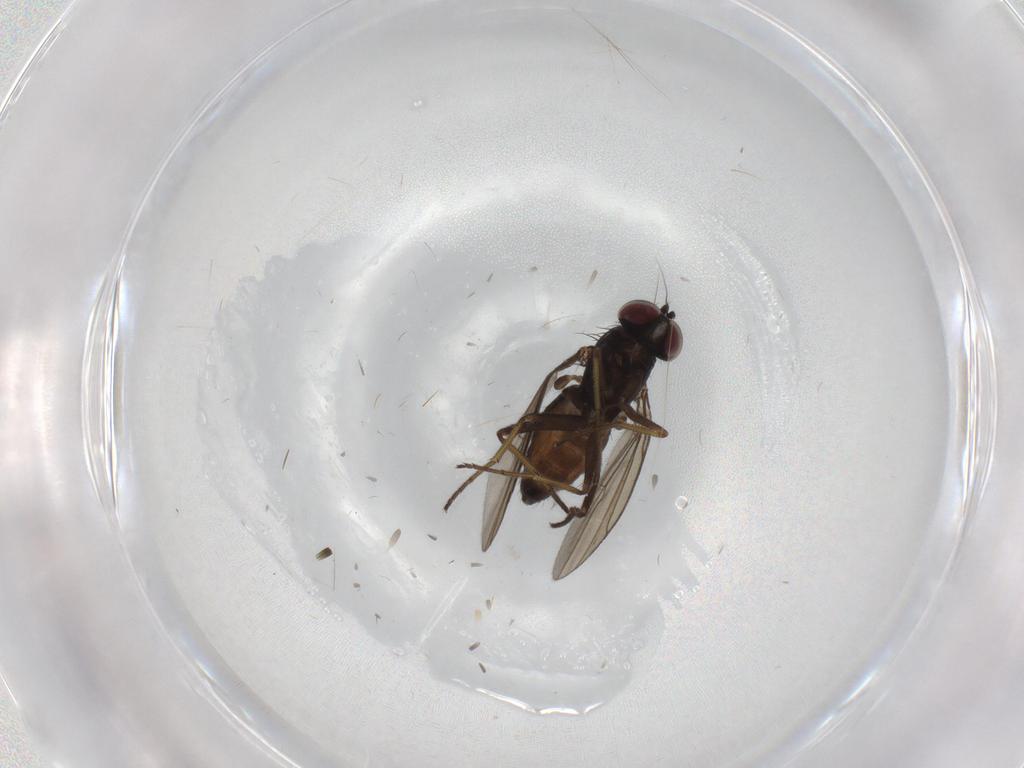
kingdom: Animalia
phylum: Arthropoda
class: Insecta
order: Diptera
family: Dolichopodidae
